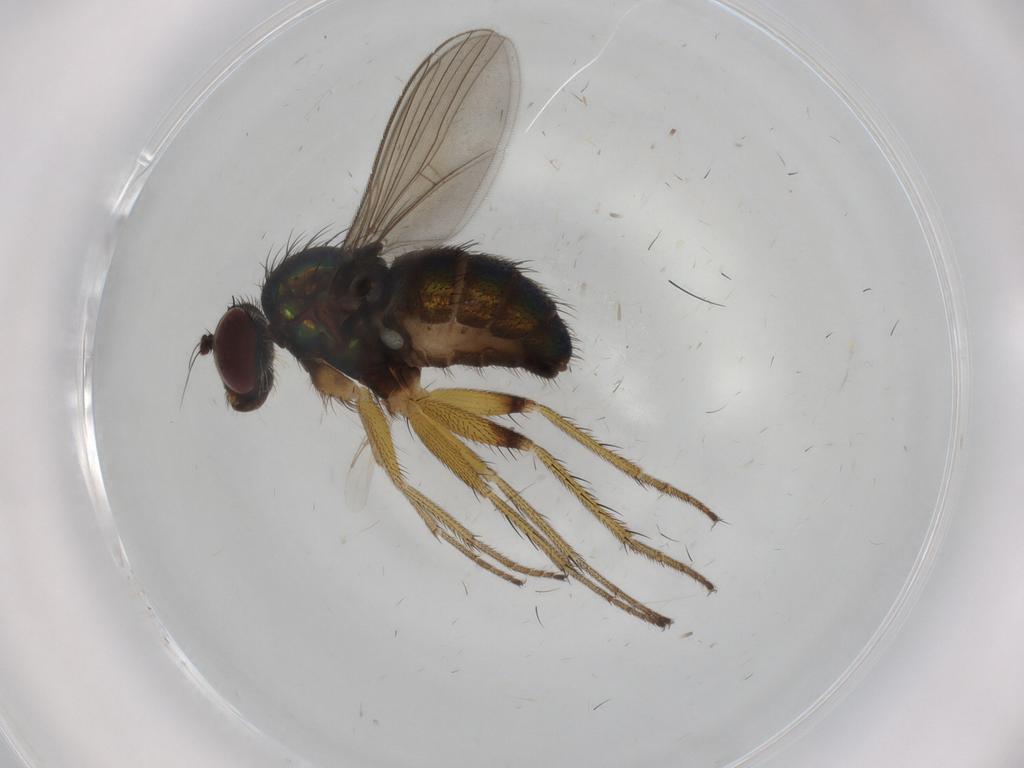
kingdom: Animalia
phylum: Arthropoda
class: Insecta
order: Diptera
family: Dolichopodidae
